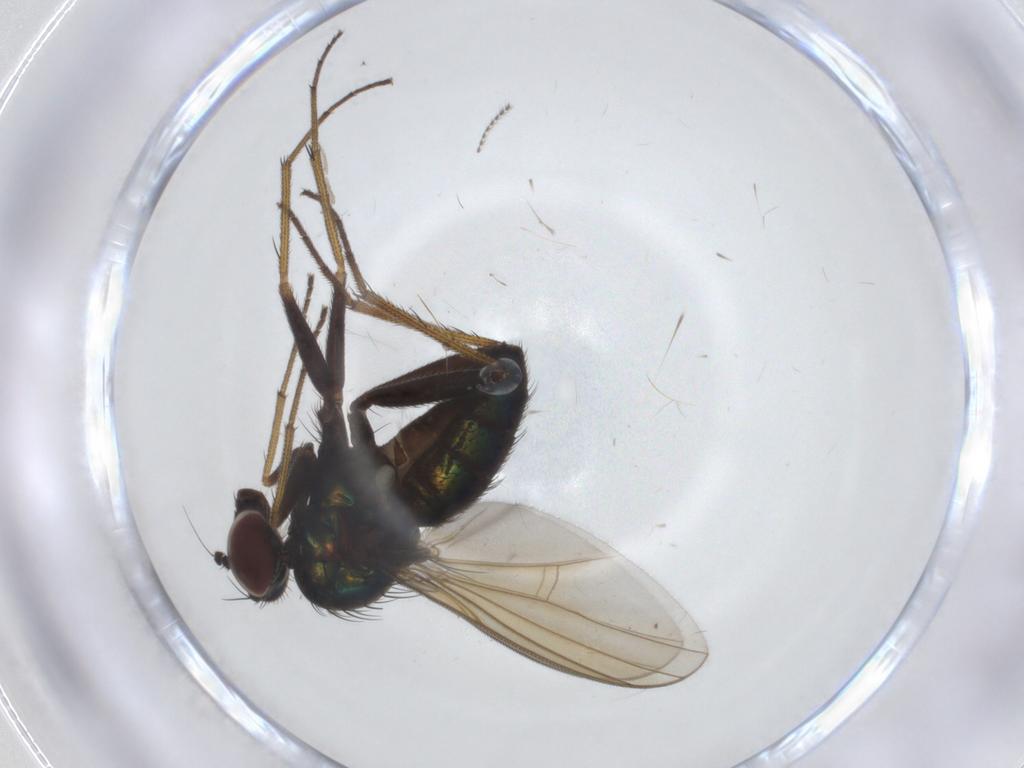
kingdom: Animalia
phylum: Arthropoda
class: Insecta
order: Diptera
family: Dolichopodidae
